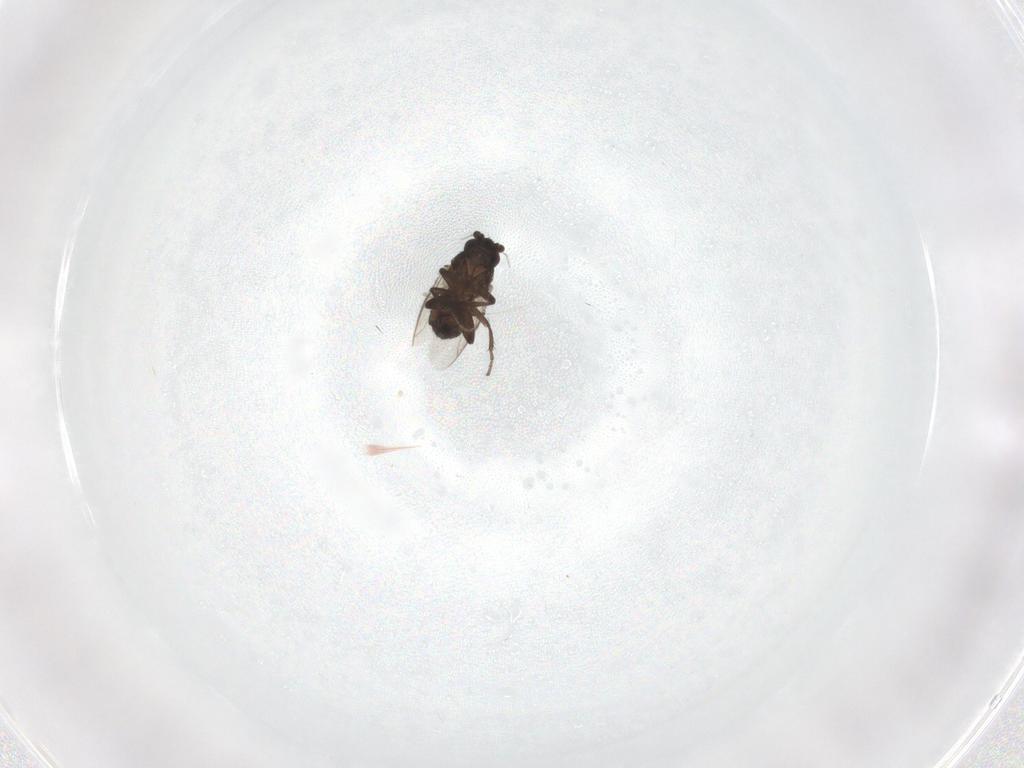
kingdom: Animalia
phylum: Arthropoda
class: Insecta
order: Diptera
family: Sphaeroceridae
